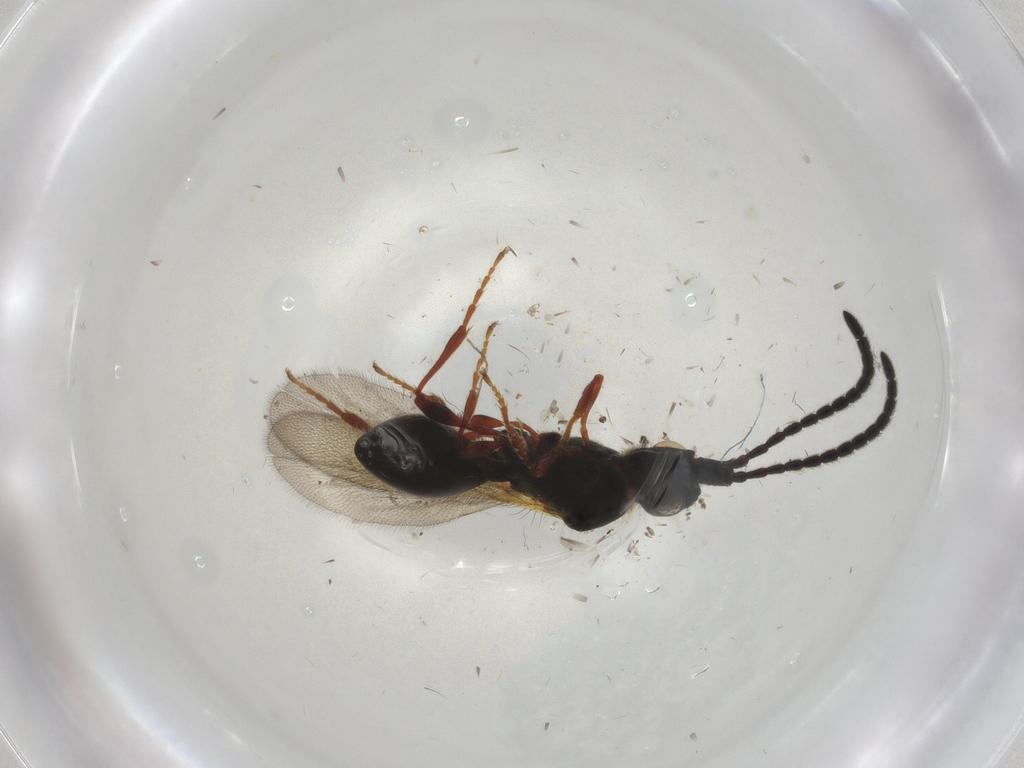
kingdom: Animalia
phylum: Arthropoda
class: Insecta
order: Hymenoptera
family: Diapriidae
